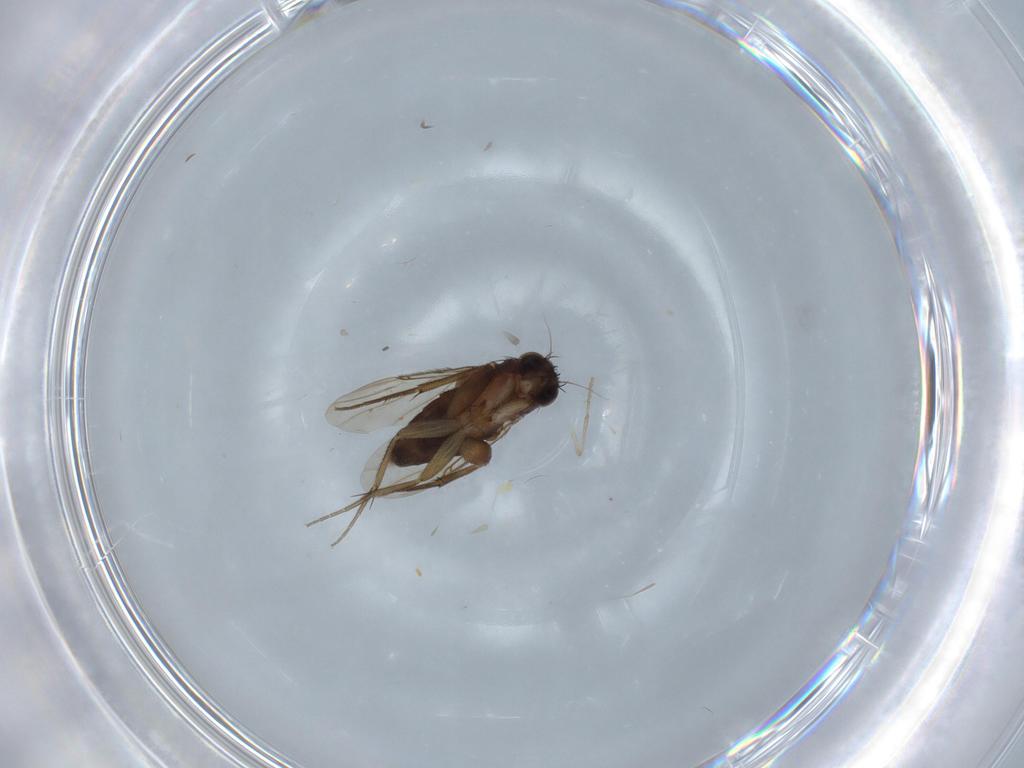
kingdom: Animalia
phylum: Arthropoda
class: Insecta
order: Diptera
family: Phoridae
